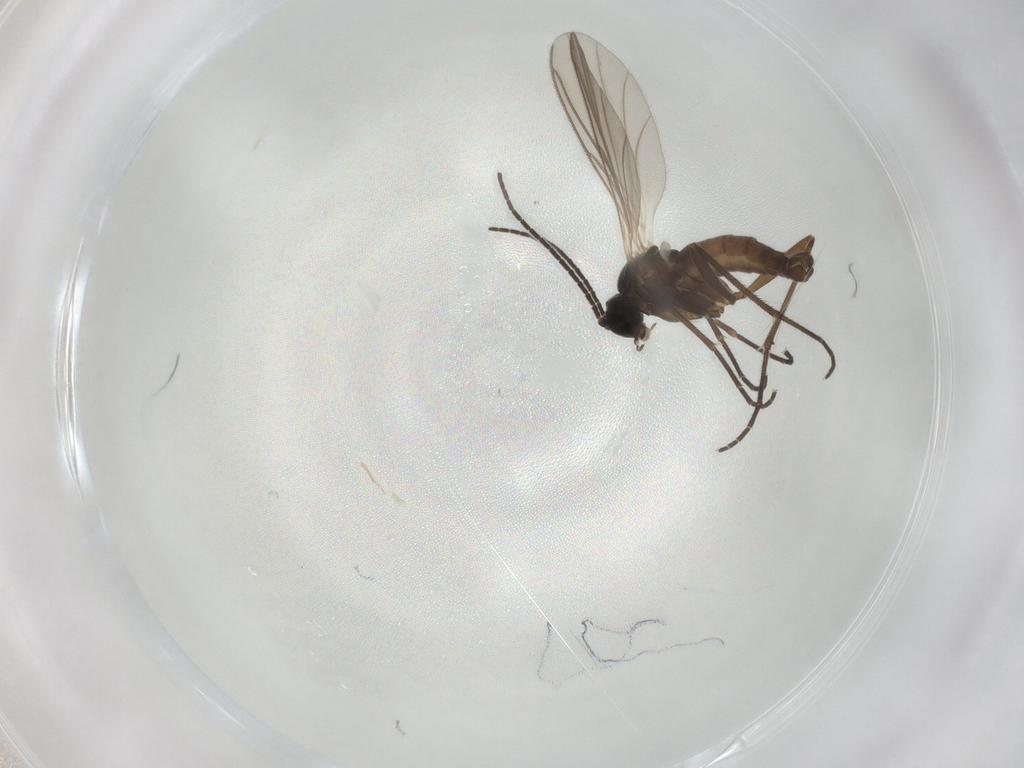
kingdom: Animalia
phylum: Arthropoda
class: Insecta
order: Diptera
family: Sciaridae
